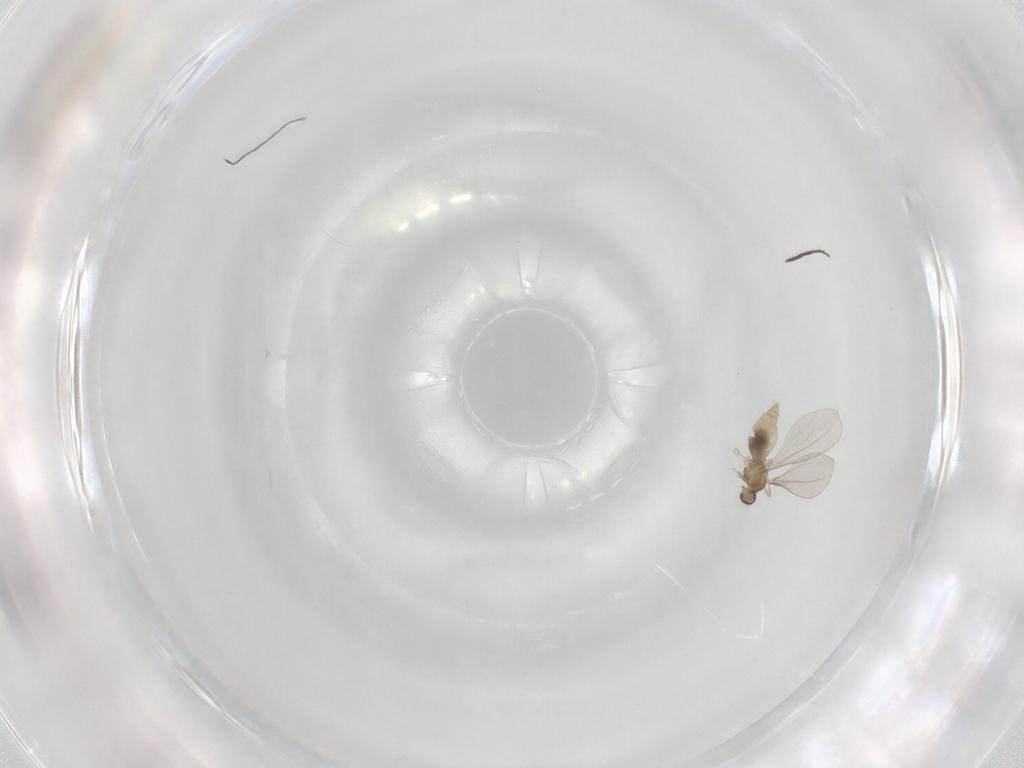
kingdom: Animalia
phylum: Arthropoda
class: Insecta
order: Diptera
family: Chironomidae
